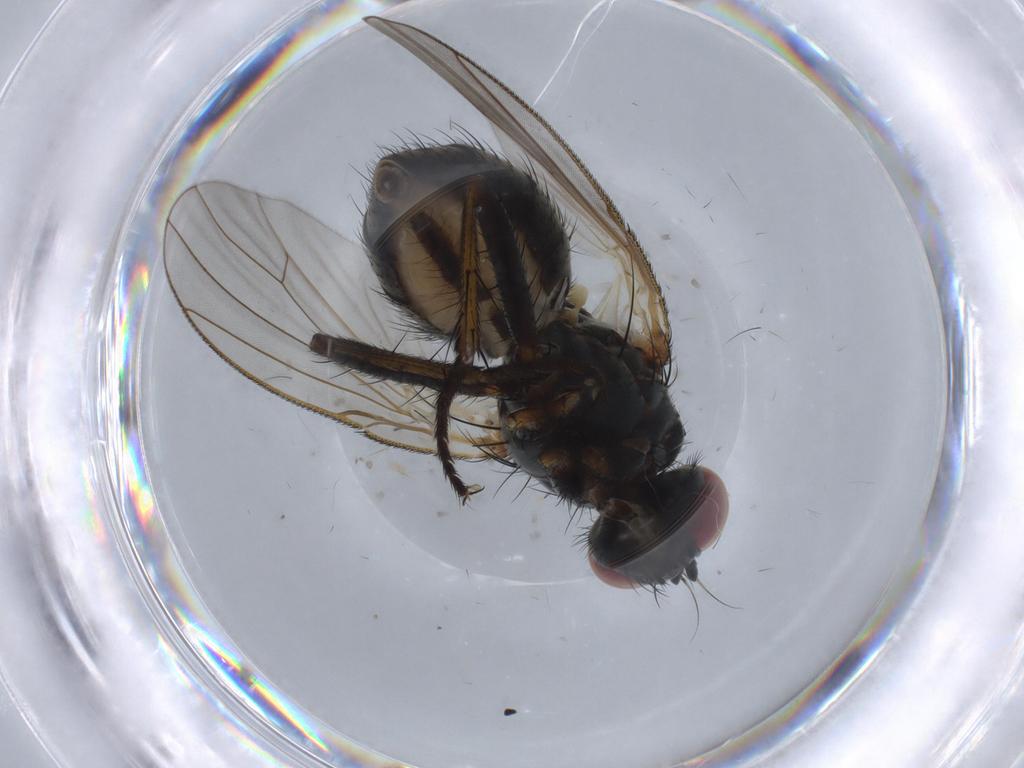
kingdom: Animalia
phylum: Arthropoda
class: Insecta
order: Diptera
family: Muscidae
